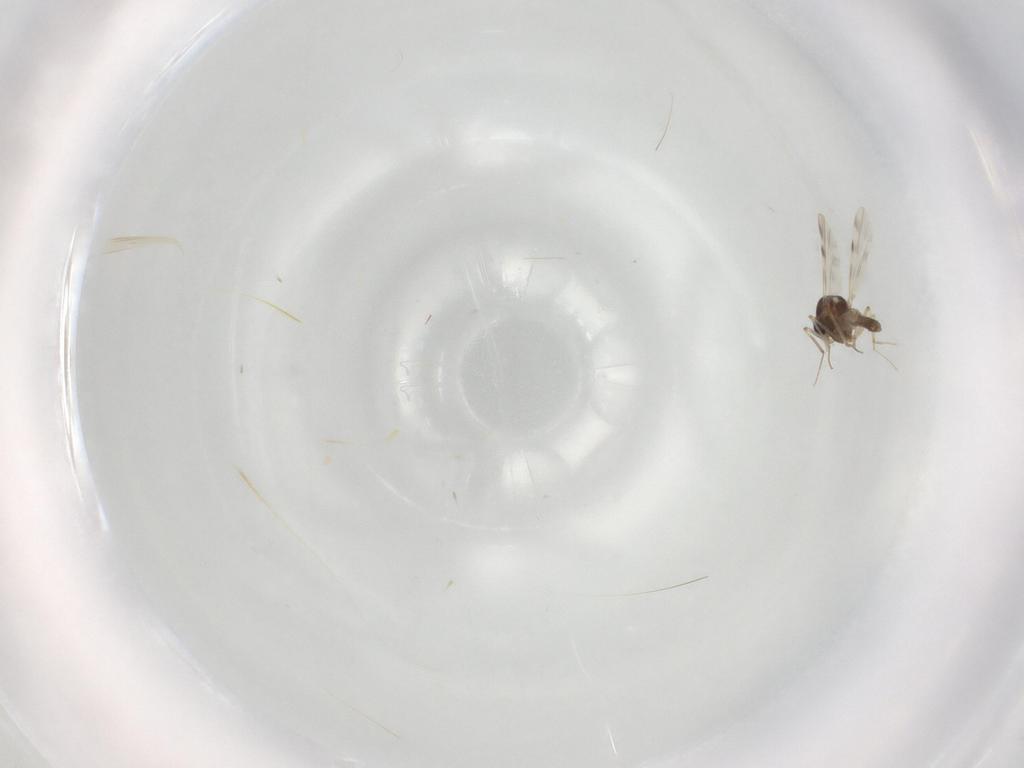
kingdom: Animalia
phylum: Arthropoda
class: Insecta
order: Diptera
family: Ceratopogonidae
